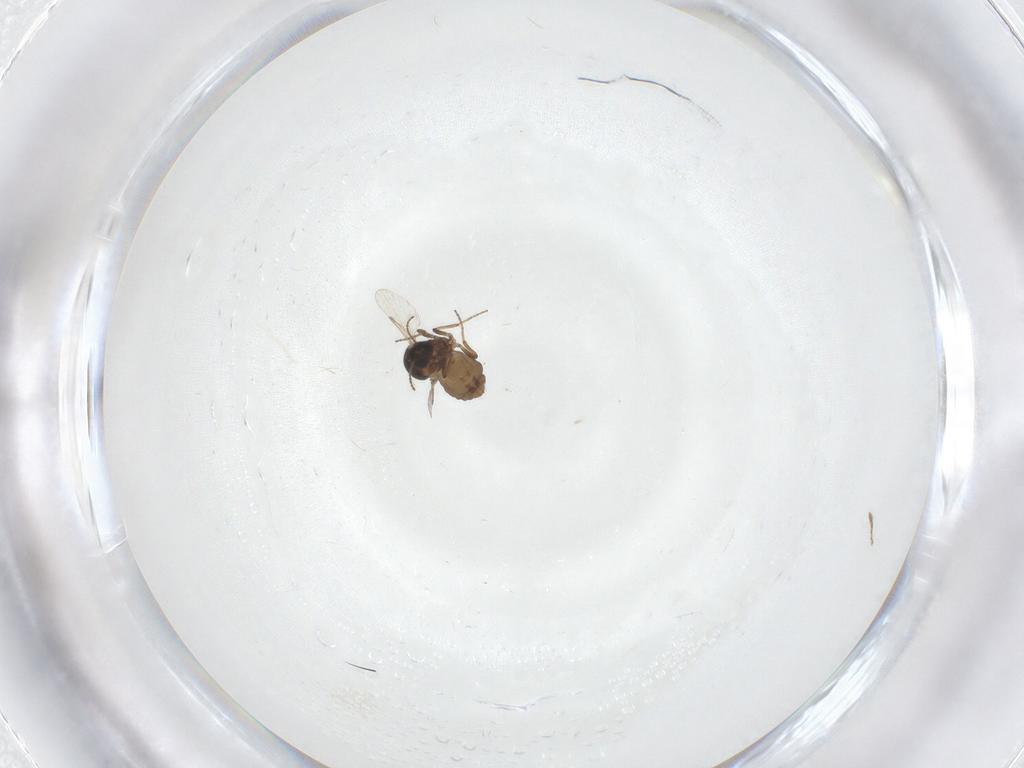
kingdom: Animalia
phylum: Arthropoda
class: Insecta
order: Diptera
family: Ceratopogonidae
